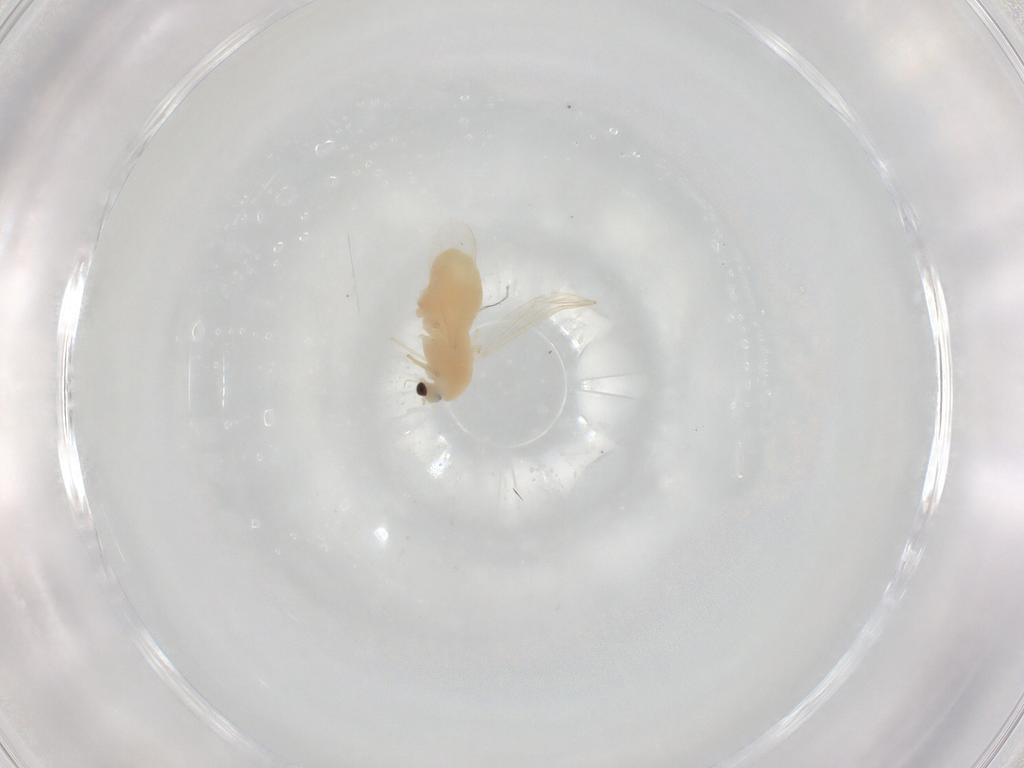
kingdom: Animalia
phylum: Arthropoda
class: Insecta
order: Diptera
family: Chironomidae
